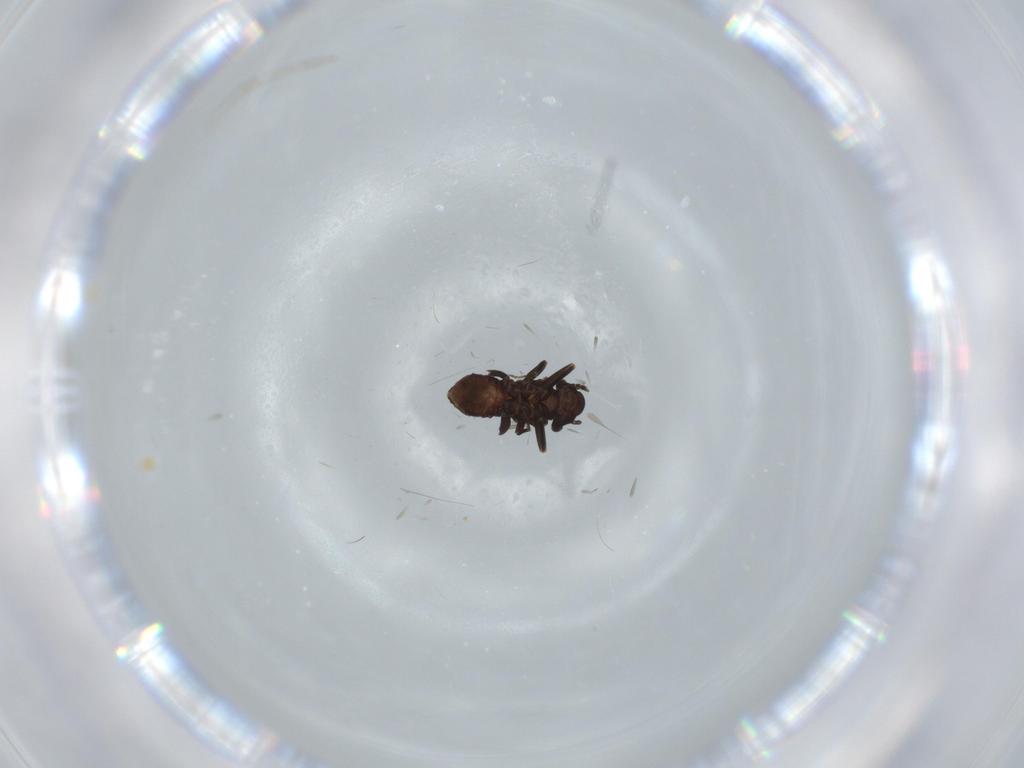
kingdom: Animalia
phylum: Arthropoda
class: Insecta
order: Psocodea
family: Lepidopsocidae
